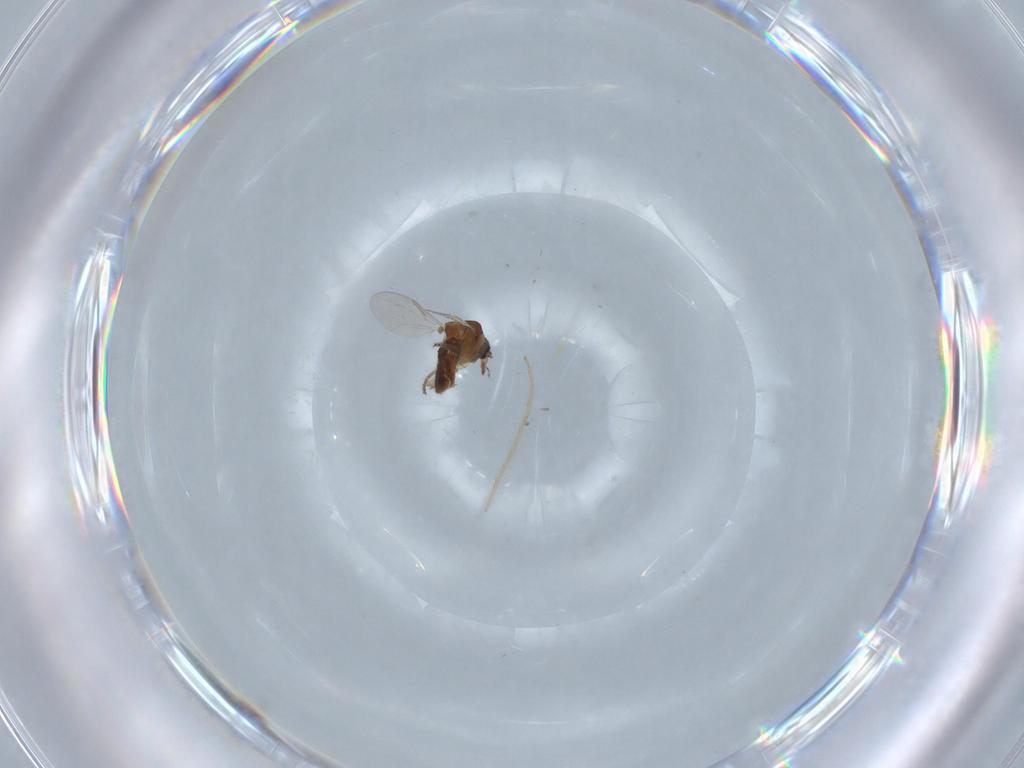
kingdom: Animalia
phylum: Arthropoda
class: Insecta
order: Diptera
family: Ceratopogonidae
